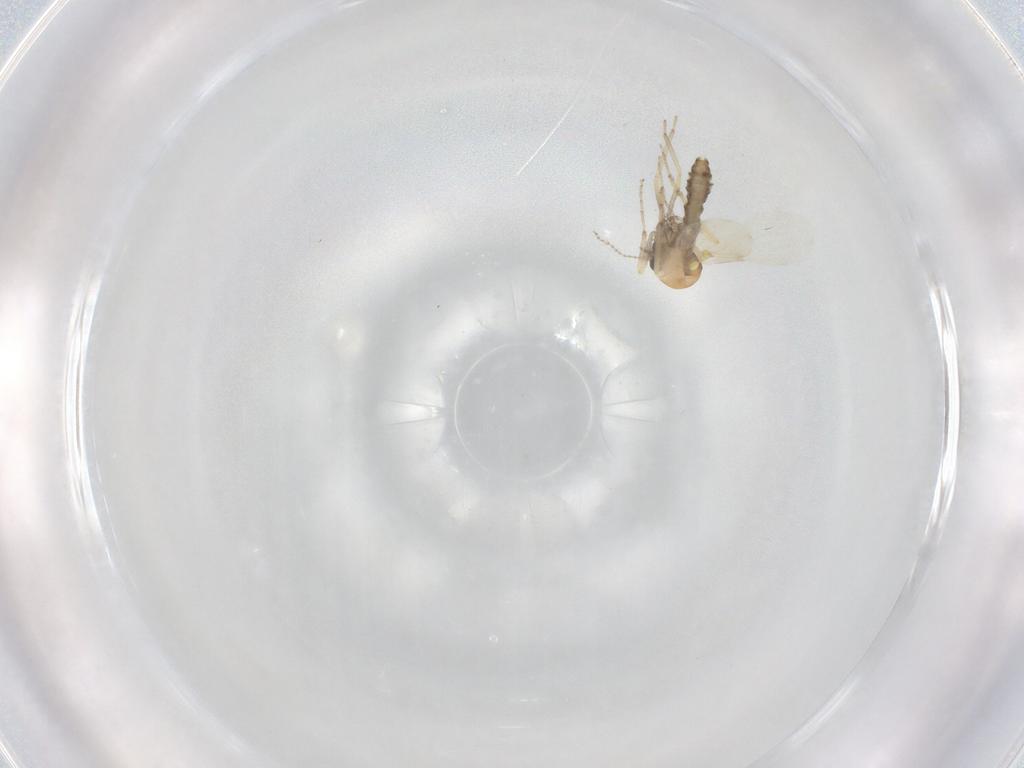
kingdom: Animalia
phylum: Arthropoda
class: Insecta
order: Diptera
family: Ceratopogonidae
